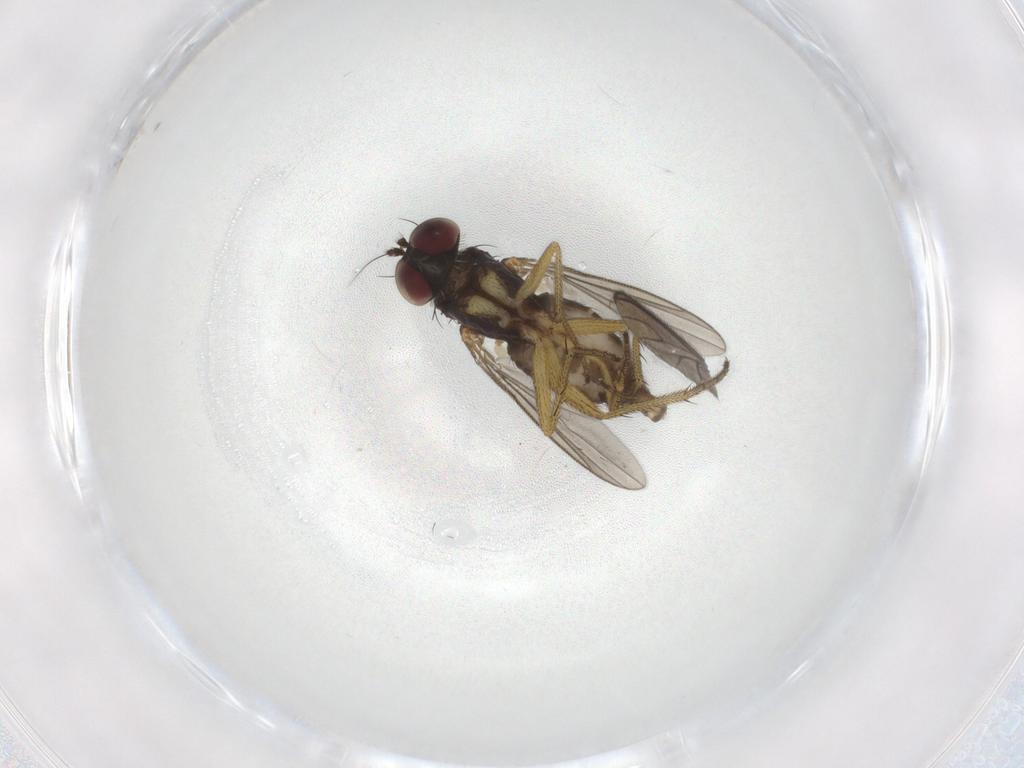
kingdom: Animalia
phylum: Arthropoda
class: Insecta
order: Diptera
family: Sciaridae
